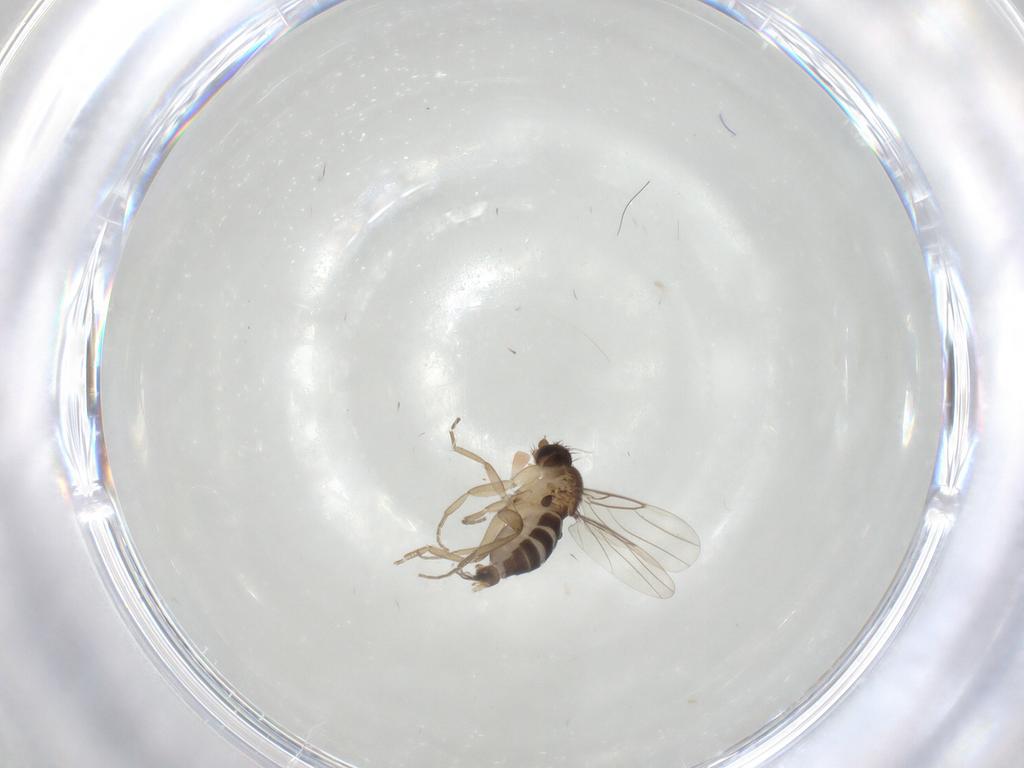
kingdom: Animalia
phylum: Arthropoda
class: Insecta
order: Diptera
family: Phoridae
